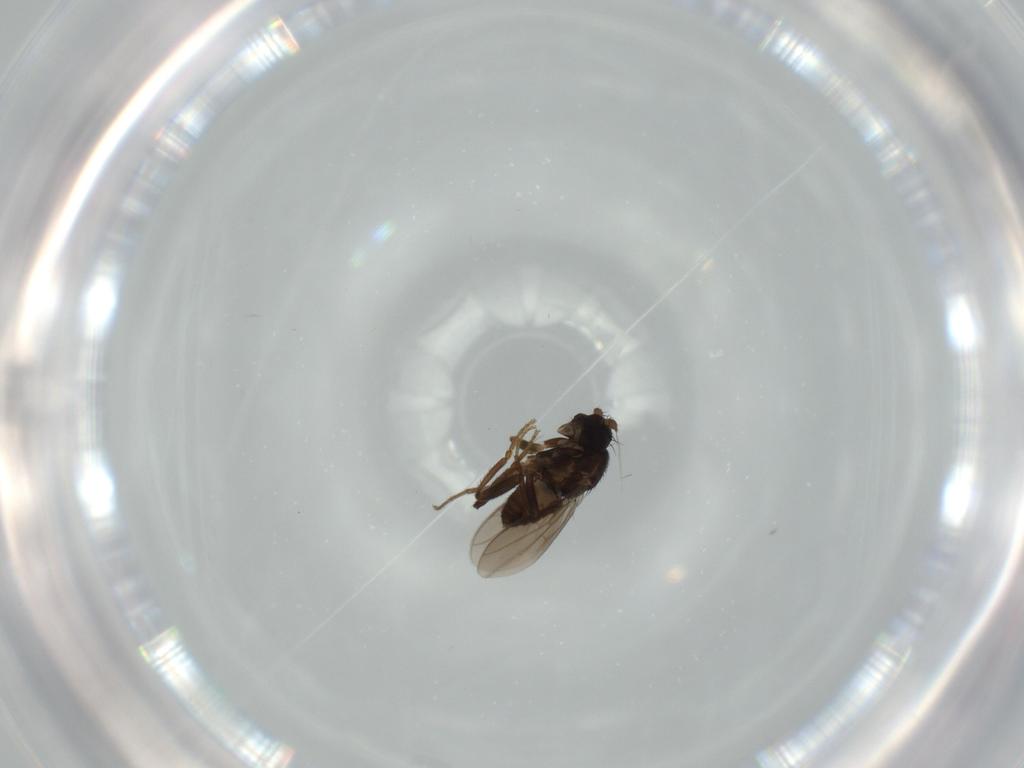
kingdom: Animalia
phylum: Arthropoda
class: Insecta
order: Diptera
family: Sphaeroceridae
